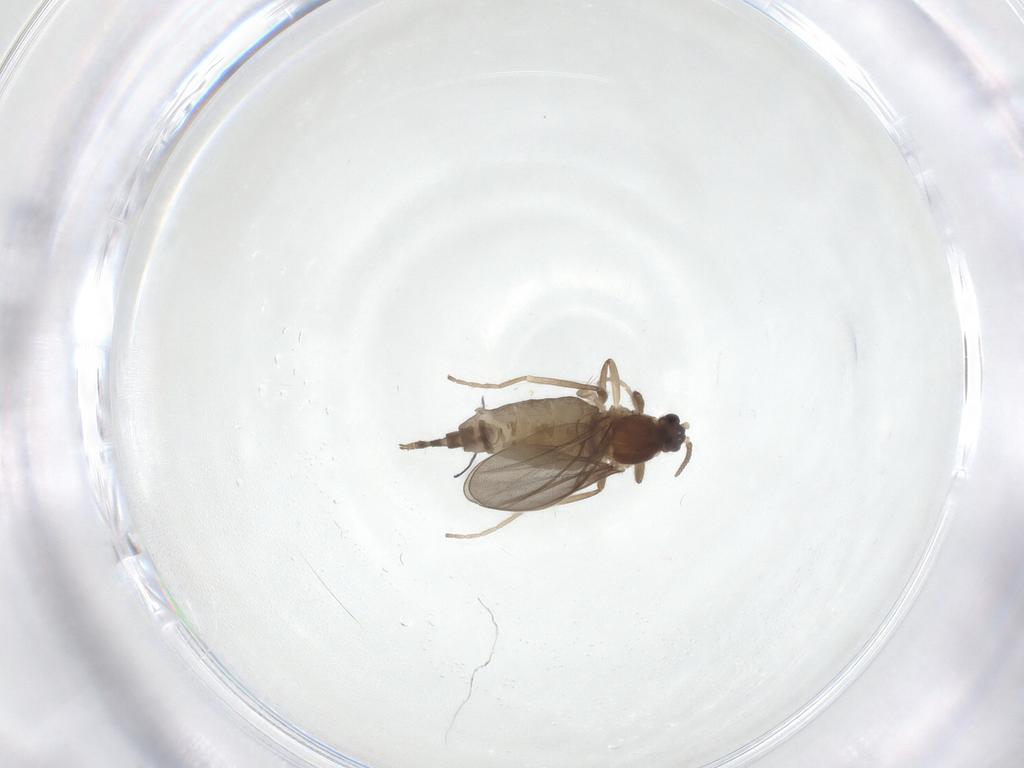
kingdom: Animalia
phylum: Arthropoda
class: Insecta
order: Diptera
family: Cecidomyiidae
